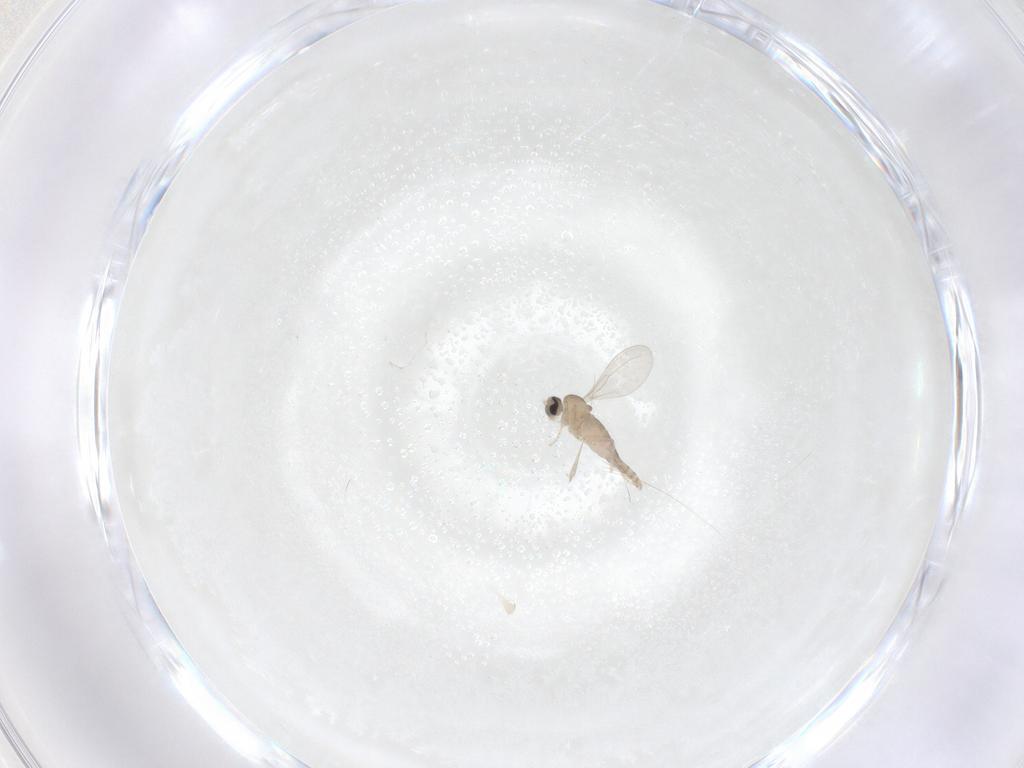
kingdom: Animalia
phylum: Arthropoda
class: Insecta
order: Diptera
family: Cecidomyiidae
